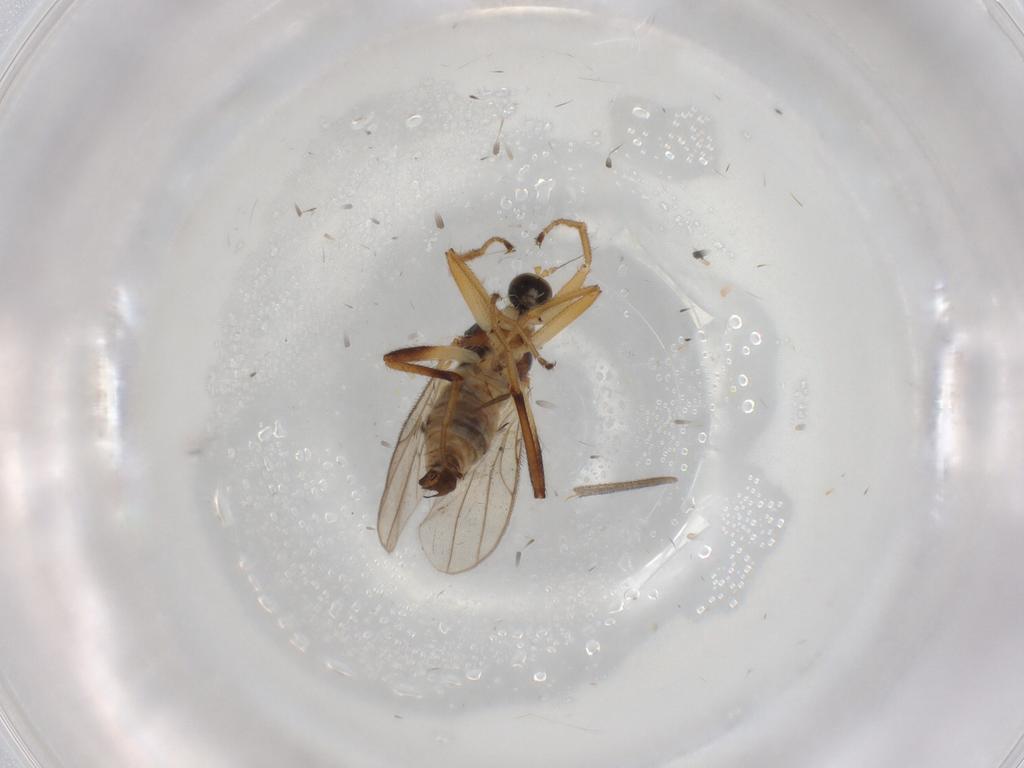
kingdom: Animalia
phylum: Arthropoda
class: Insecta
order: Diptera
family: Hybotidae
